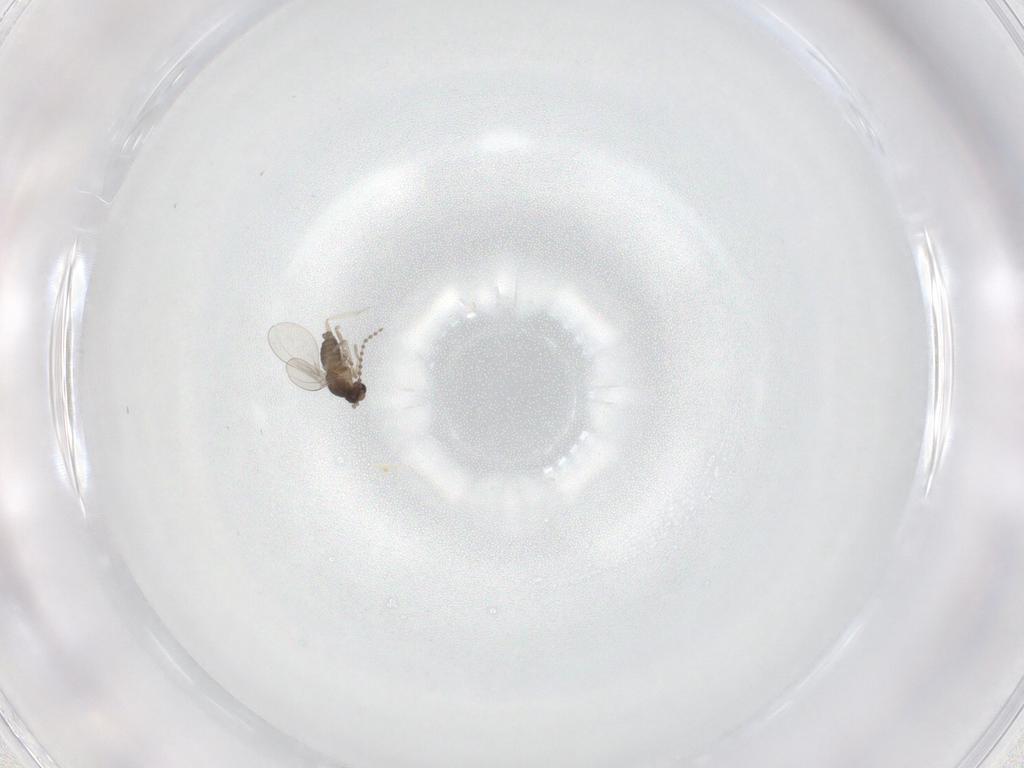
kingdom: Animalia
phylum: Arthropoda
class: Insecta
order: Diptera
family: Cecidomyiidae
